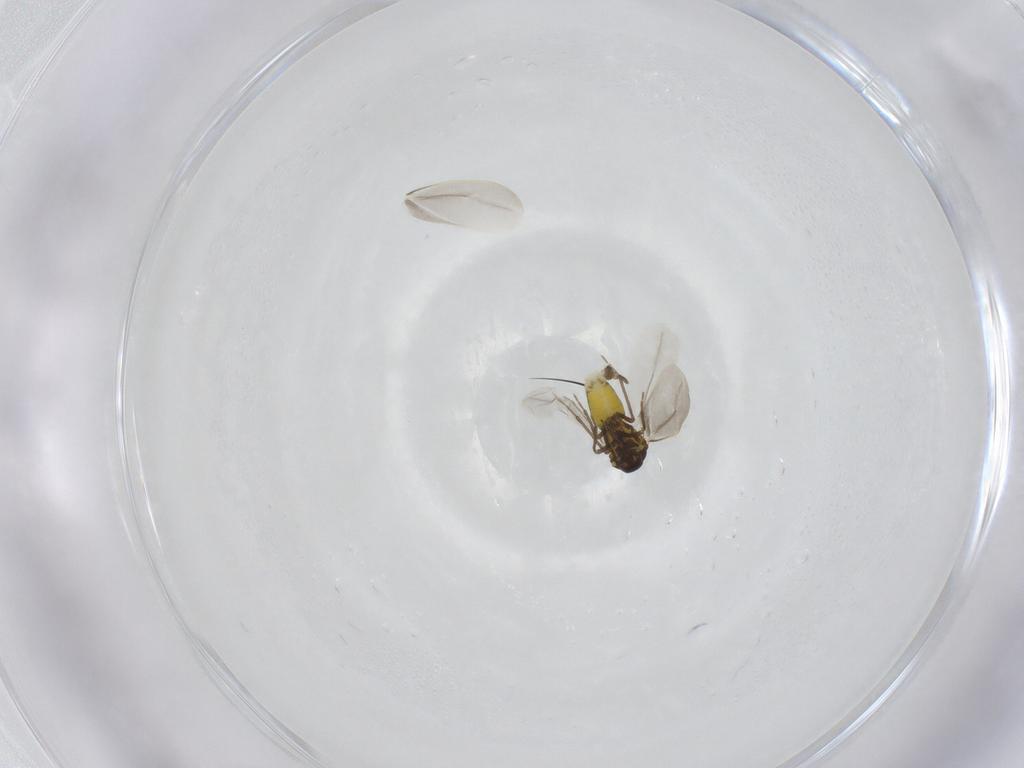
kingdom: Animalia
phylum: Arthropoda
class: Insecta
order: Hemiptera
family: Aleyrodidae
